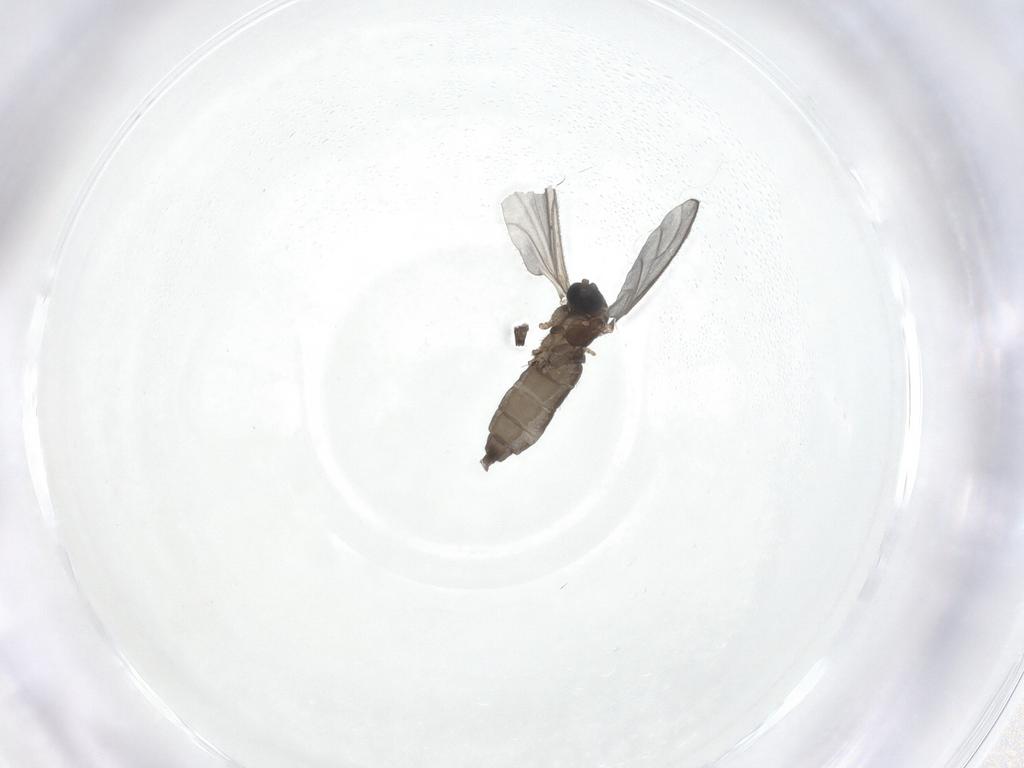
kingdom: Animalia
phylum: Arthropoda
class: Insecta
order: Diptera
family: Sciaridae
